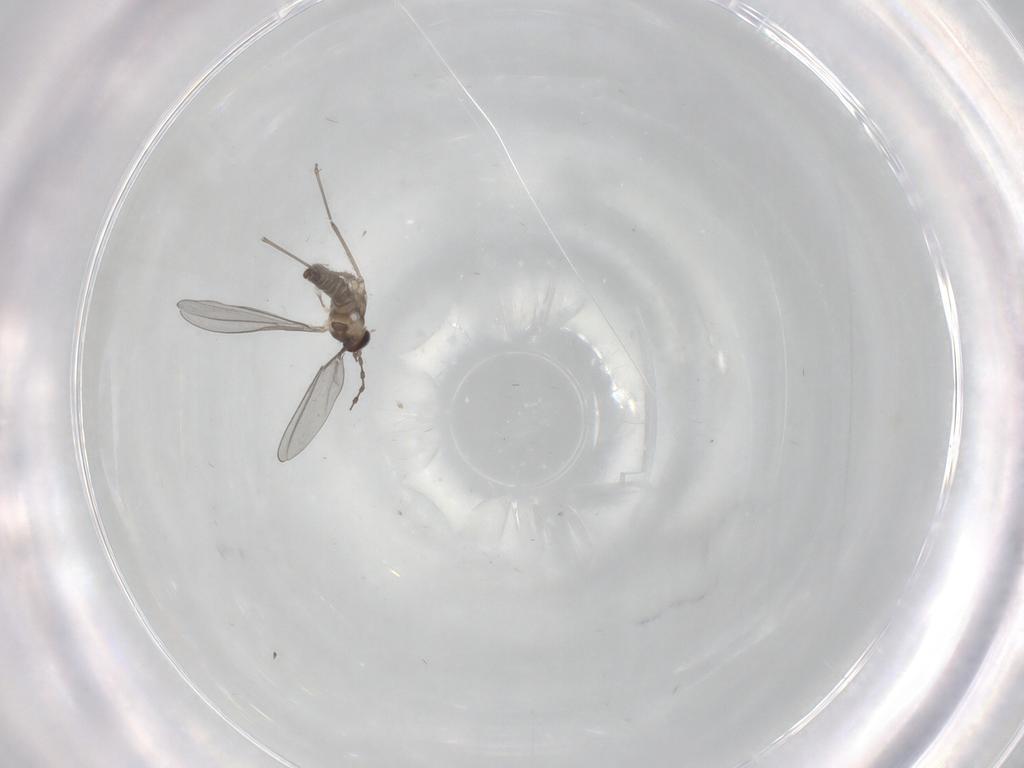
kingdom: Animalia
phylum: Arthropoda
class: Insecta
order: Diptera
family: Cecidomyiidae
